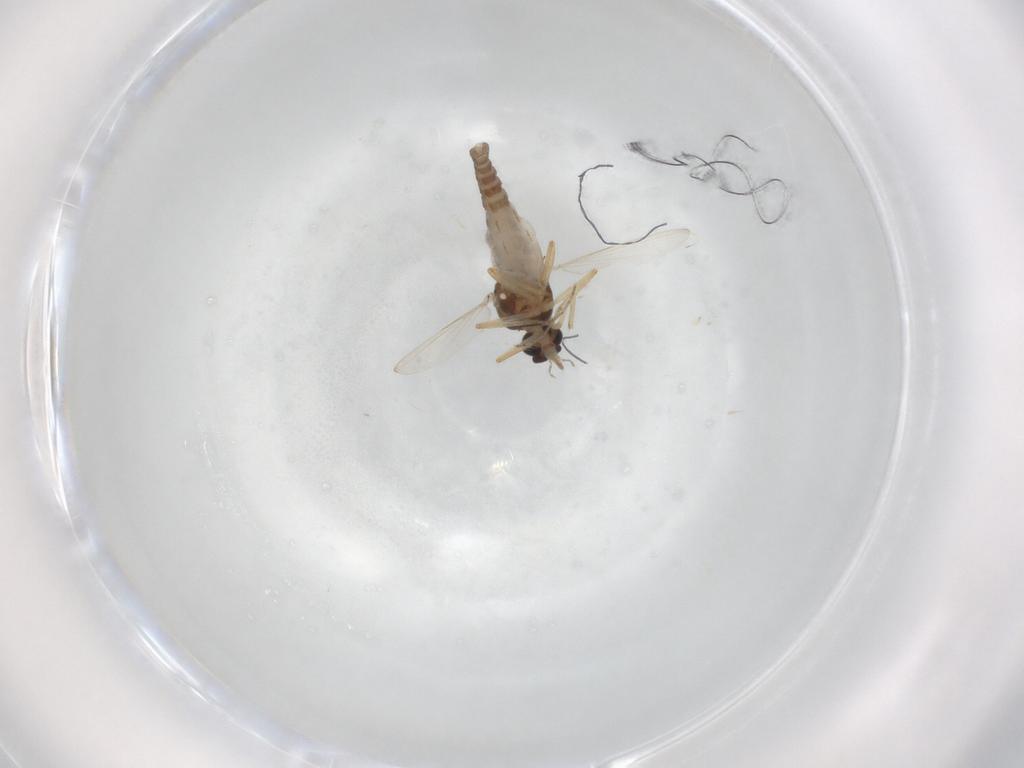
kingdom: Animalia
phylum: Arthropoda
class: Insecta
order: Diptera
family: Ceratopogonidae
